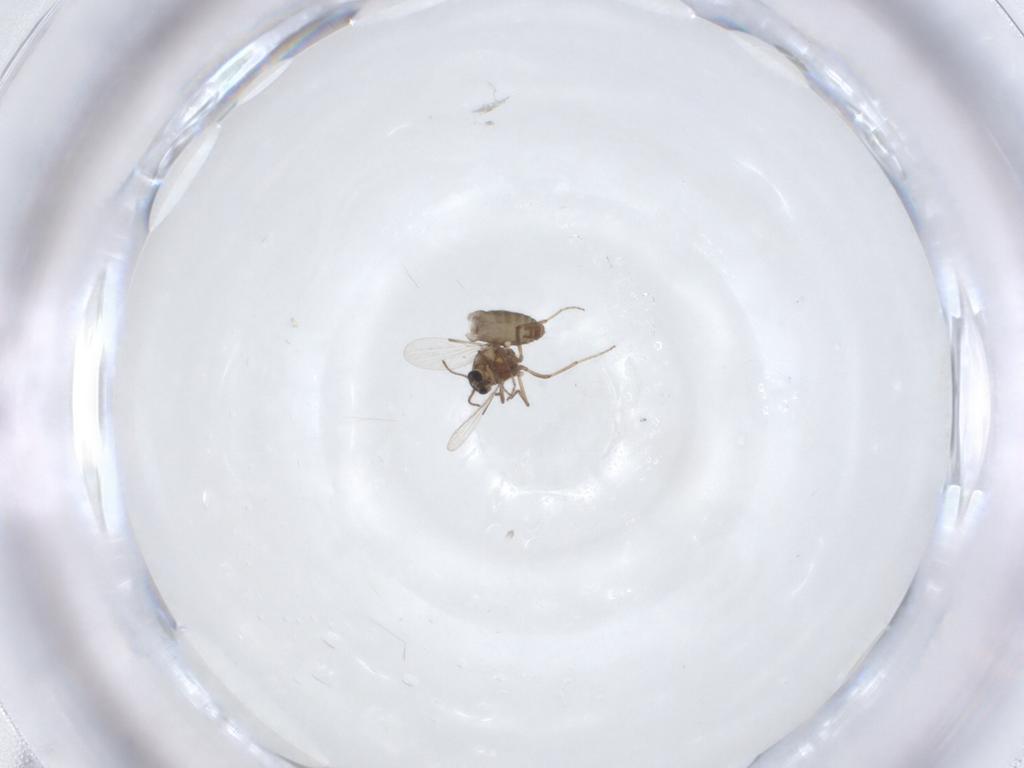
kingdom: Animalia
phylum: Arthropoda
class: Insecta
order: Diptera
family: Ceratopogonidae
